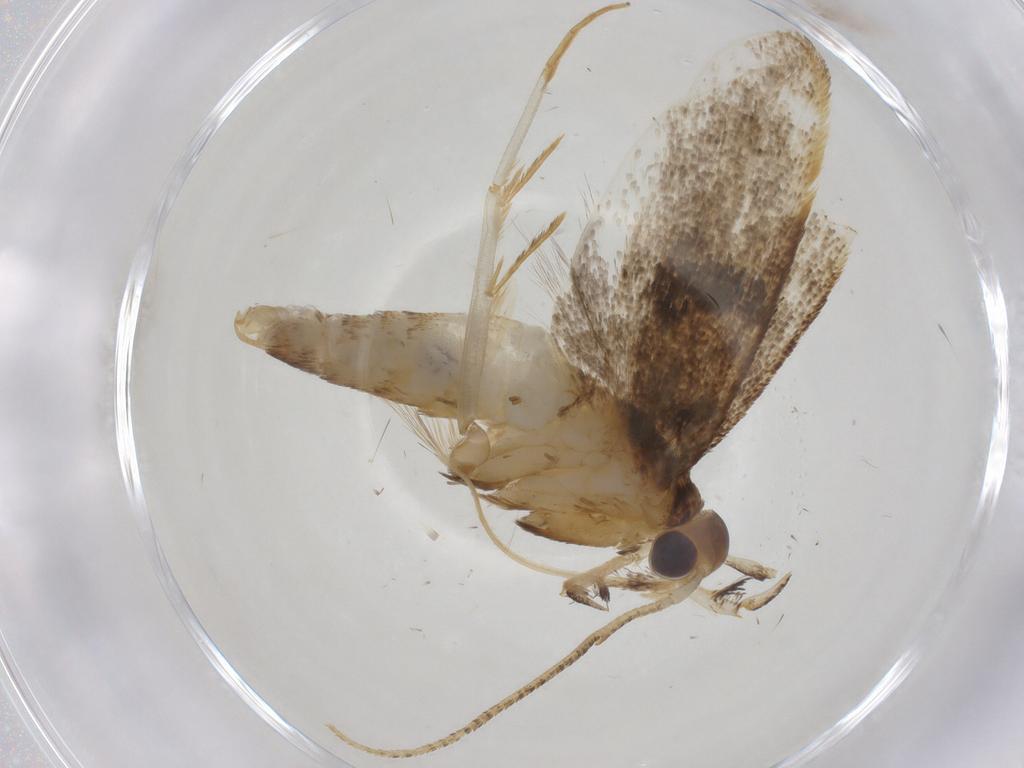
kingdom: Animalia
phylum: Arthropoda
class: Insecta
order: Lepidoptera
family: Lecithoceridae
